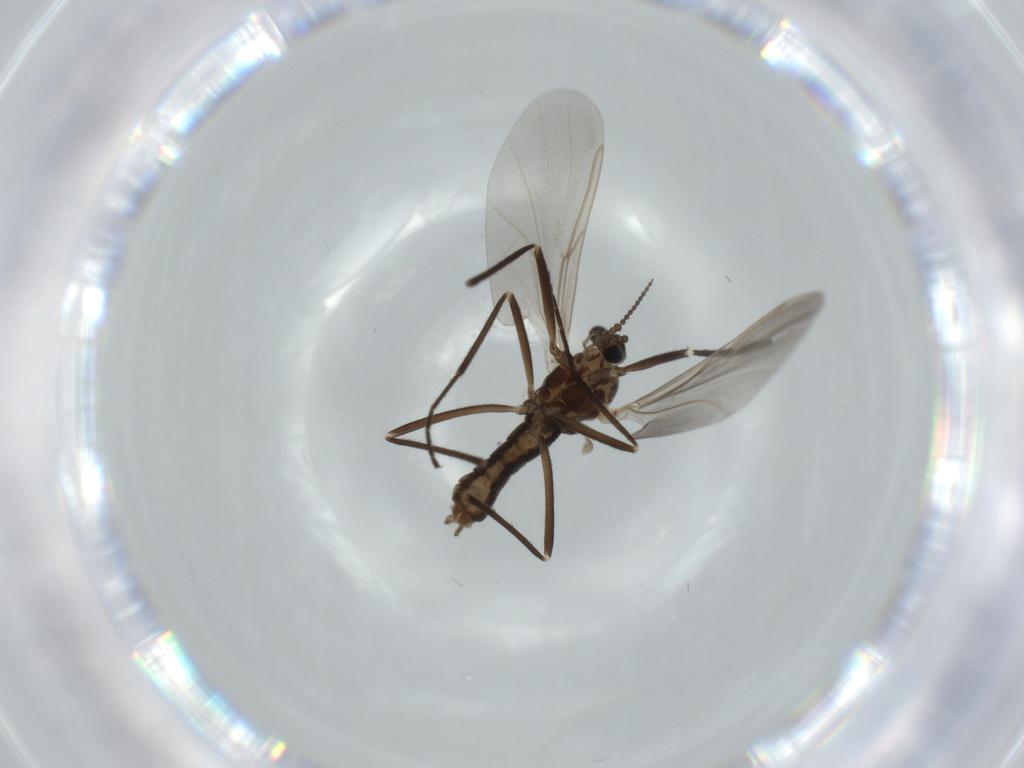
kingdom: Animalia
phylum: Arthropoda
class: Insecta
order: Diptera
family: Cecidomyiidae
